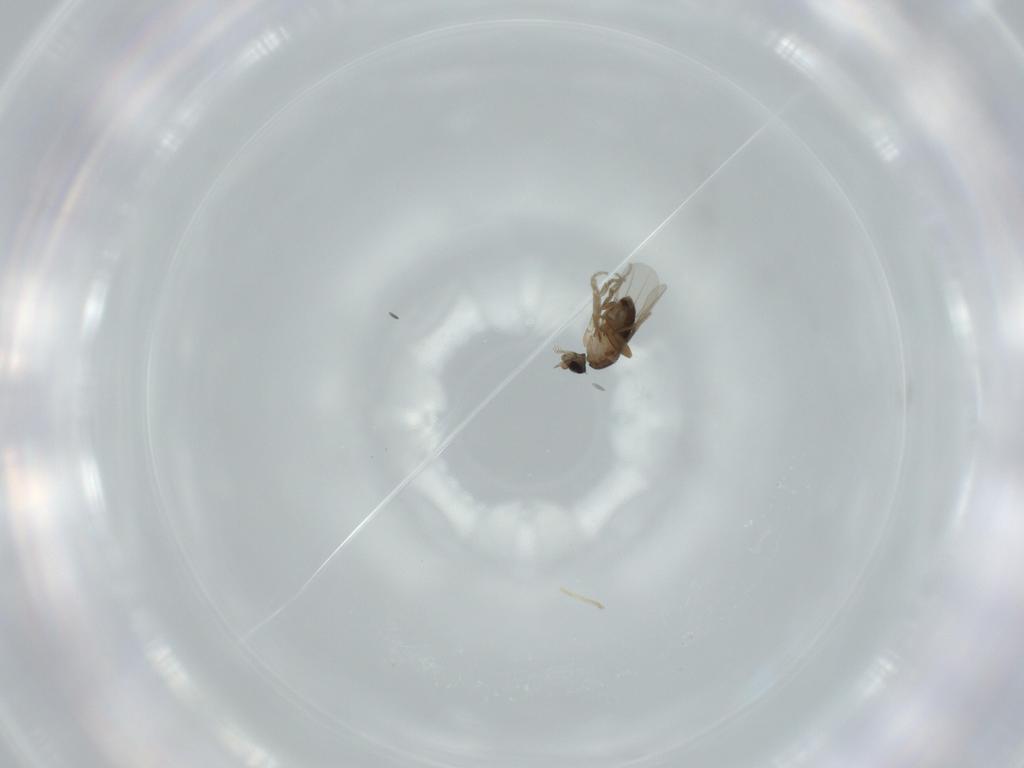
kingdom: Animalia
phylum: Arthropoda
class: Insecta
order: Diptera
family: Phoridae
